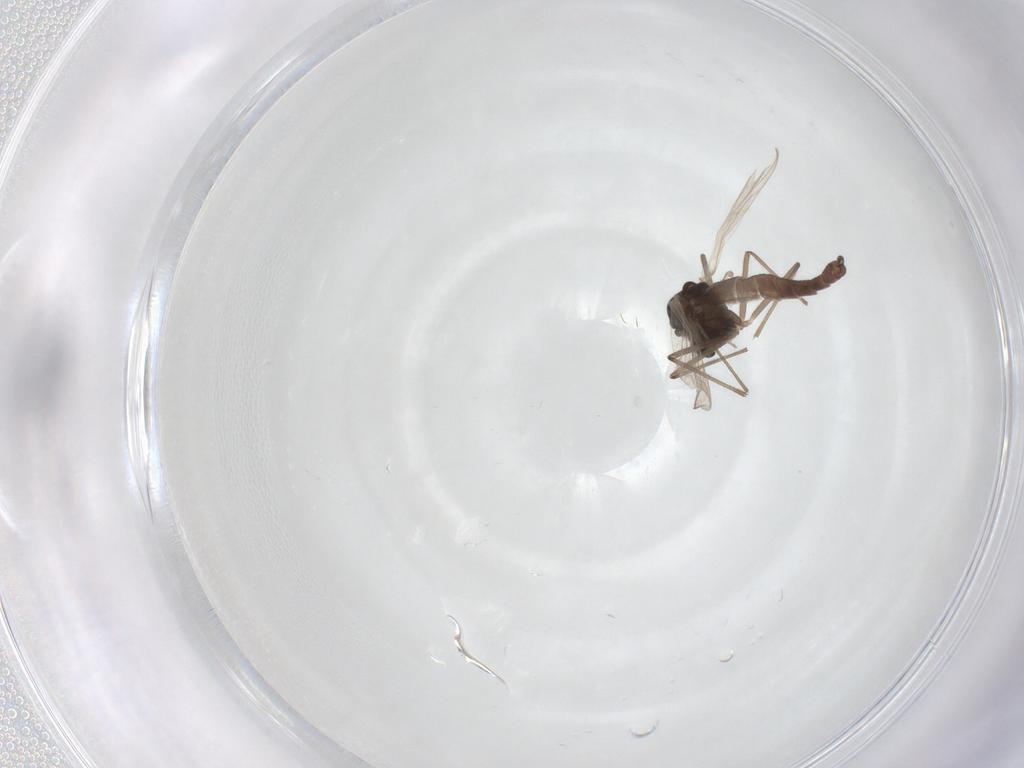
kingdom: Animalia
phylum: Arthropoda
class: Insecta
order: Diptera
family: Chironomidae
